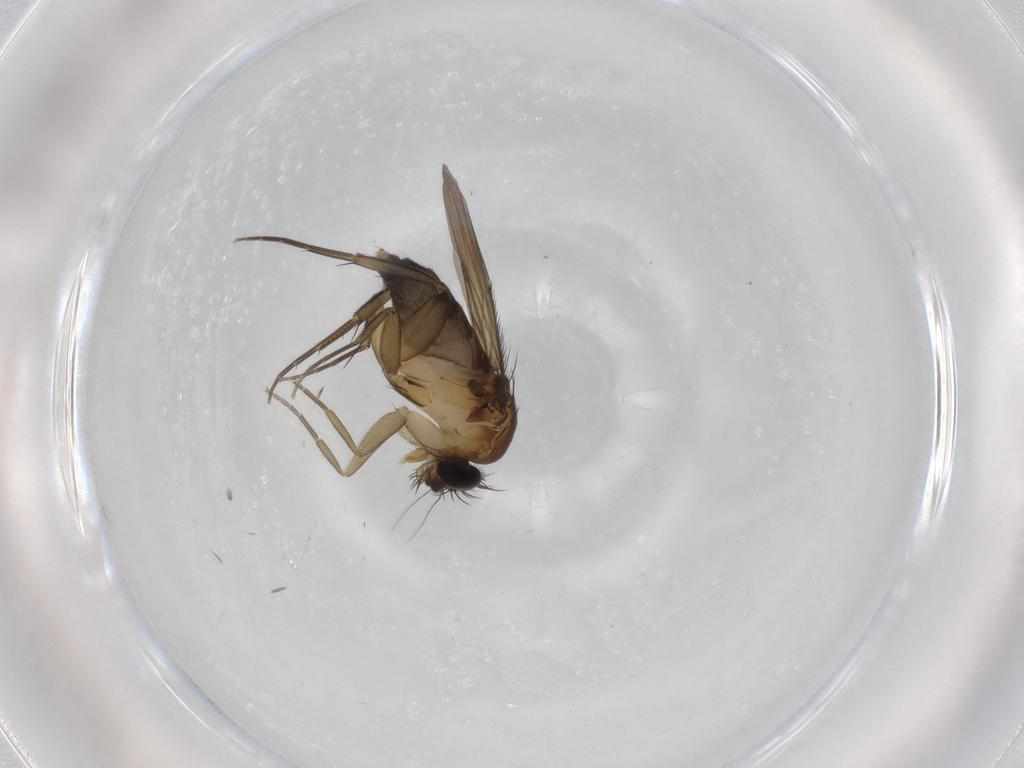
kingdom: Animalia
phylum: Arthropoda
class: Insecta
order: Diptera
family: Phoridae
